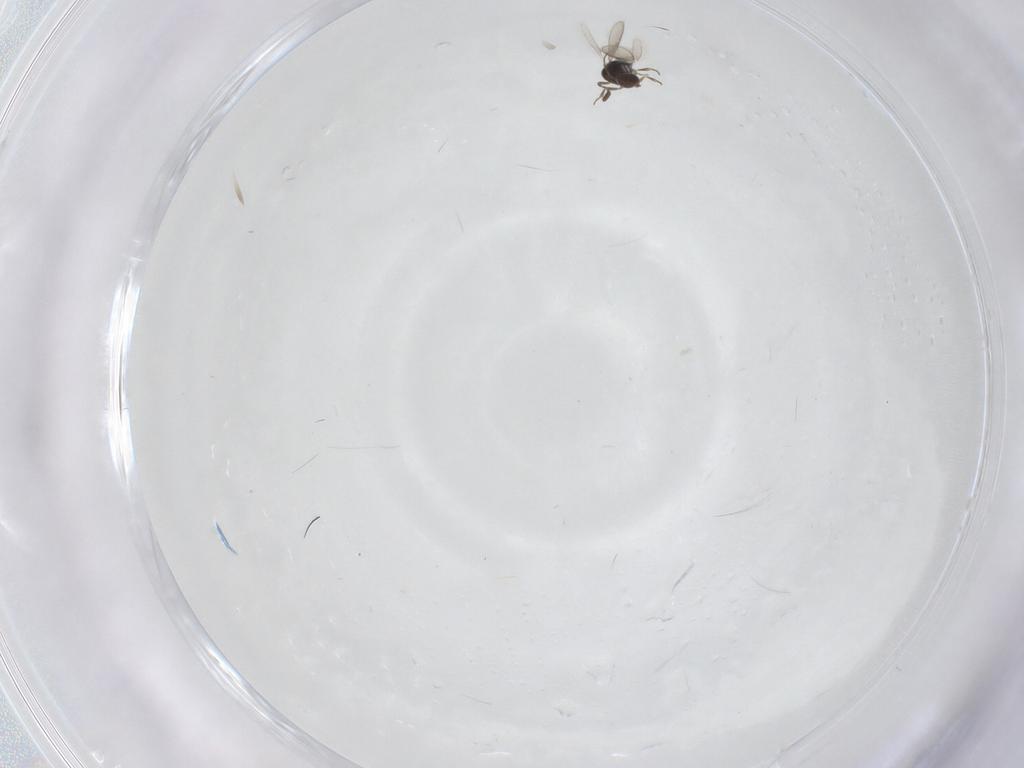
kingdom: Animalia
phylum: Arthropoda
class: Insecta
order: Hymenoptera
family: Scelionidae
